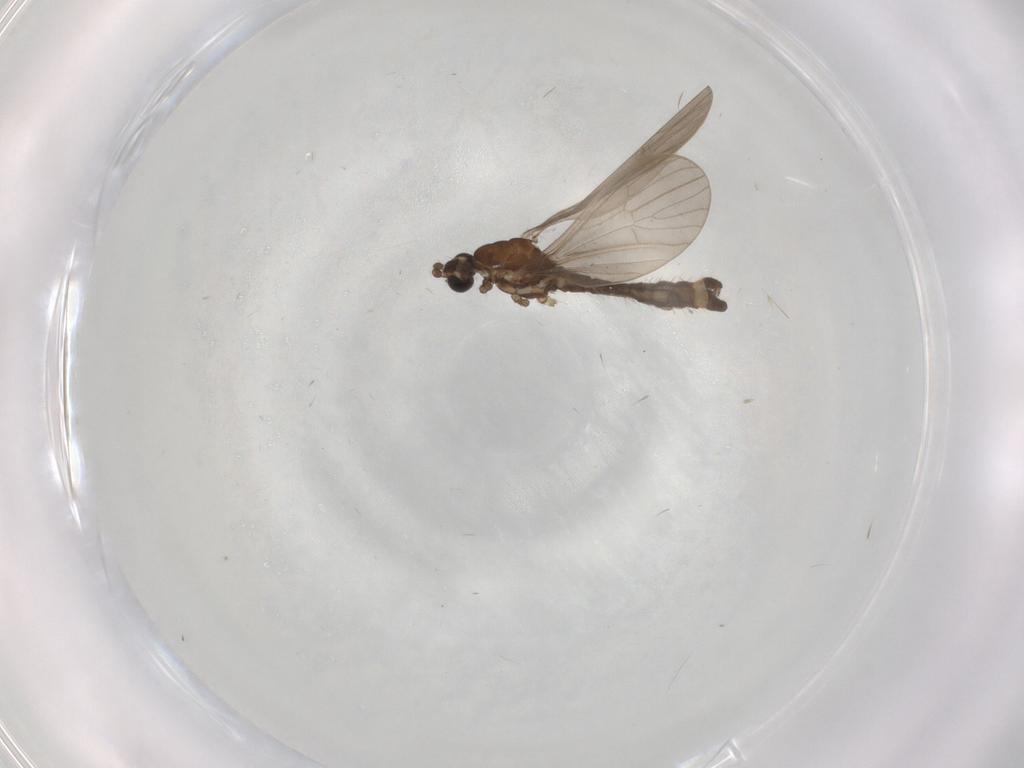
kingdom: Animalia
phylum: Arthropoda
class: Insecta
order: Diptera
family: Limoniidae
